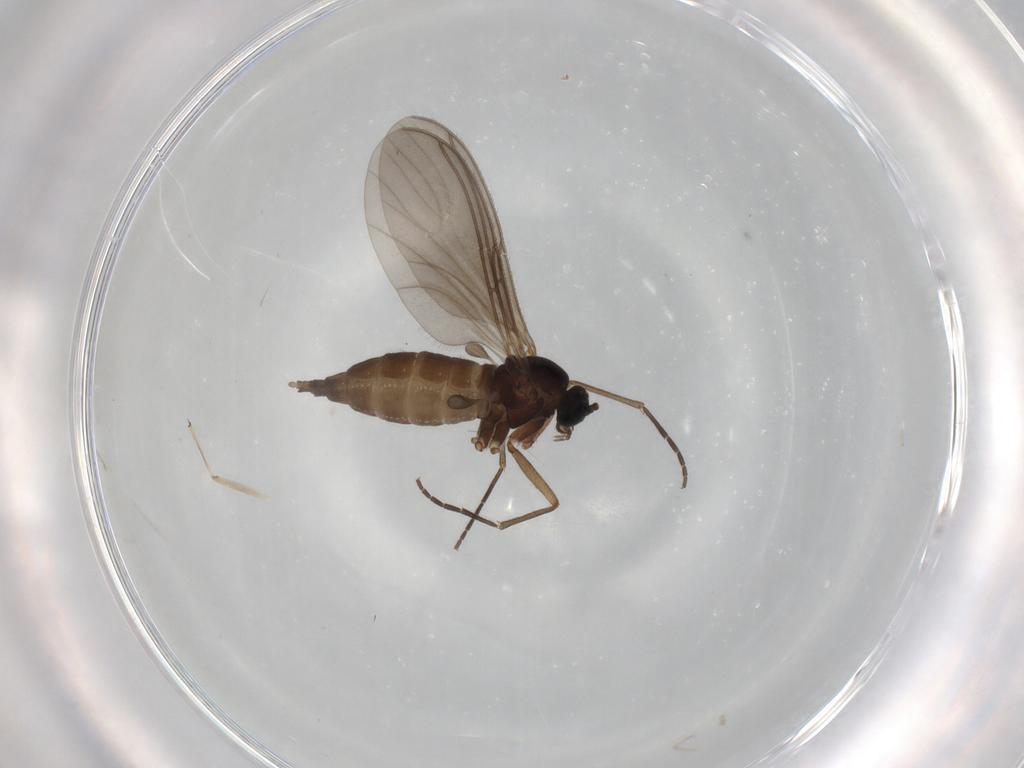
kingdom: Animalia
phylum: Arthropoda
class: Insecta
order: Diptera
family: Sciaridae
